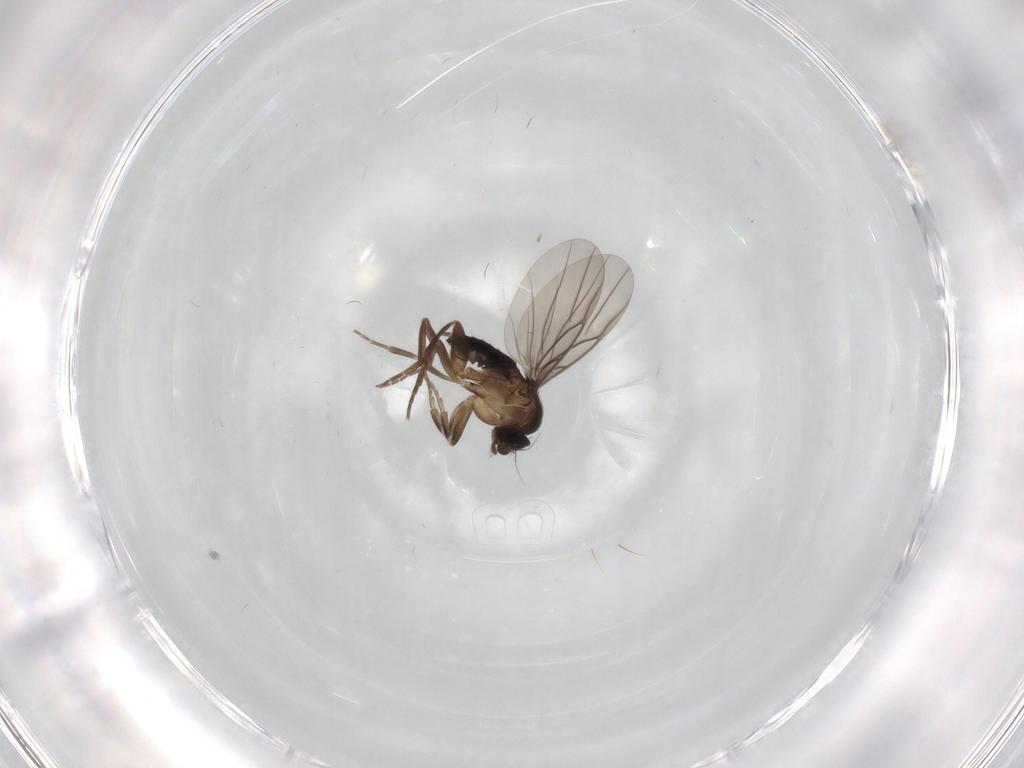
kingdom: Animalia
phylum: Arthropoda
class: Insecta
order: Diptera
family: Phoridae
